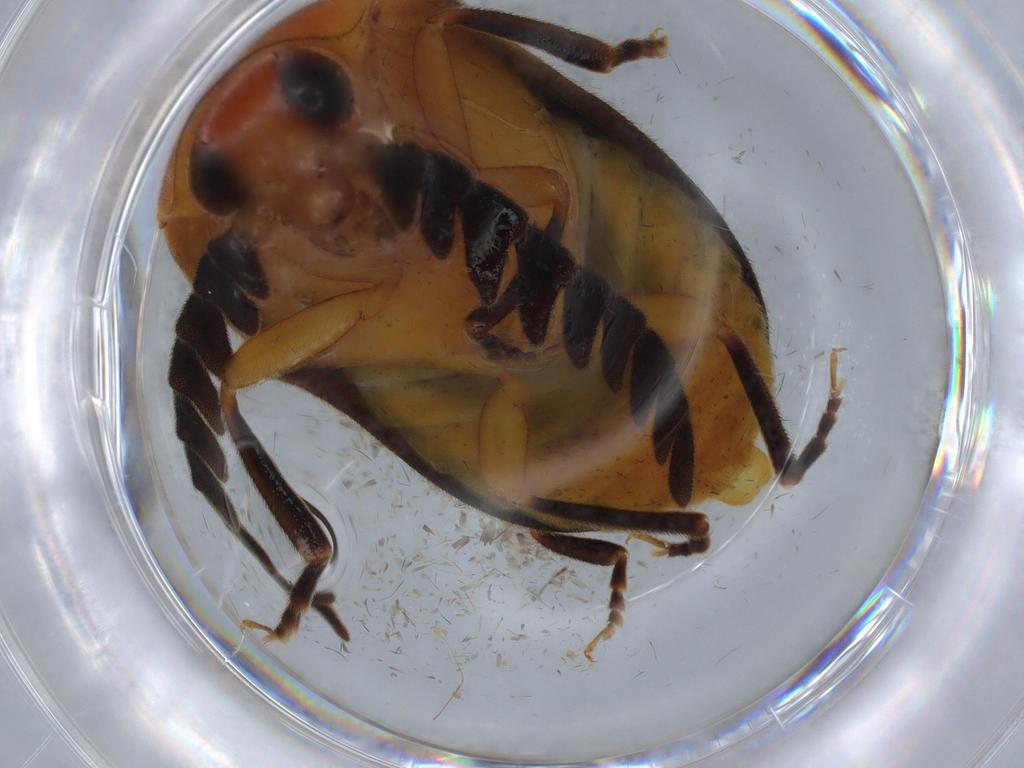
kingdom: Animalia
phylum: Arthropoda
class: Insecta
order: Coleoptera
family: Lampyridae
